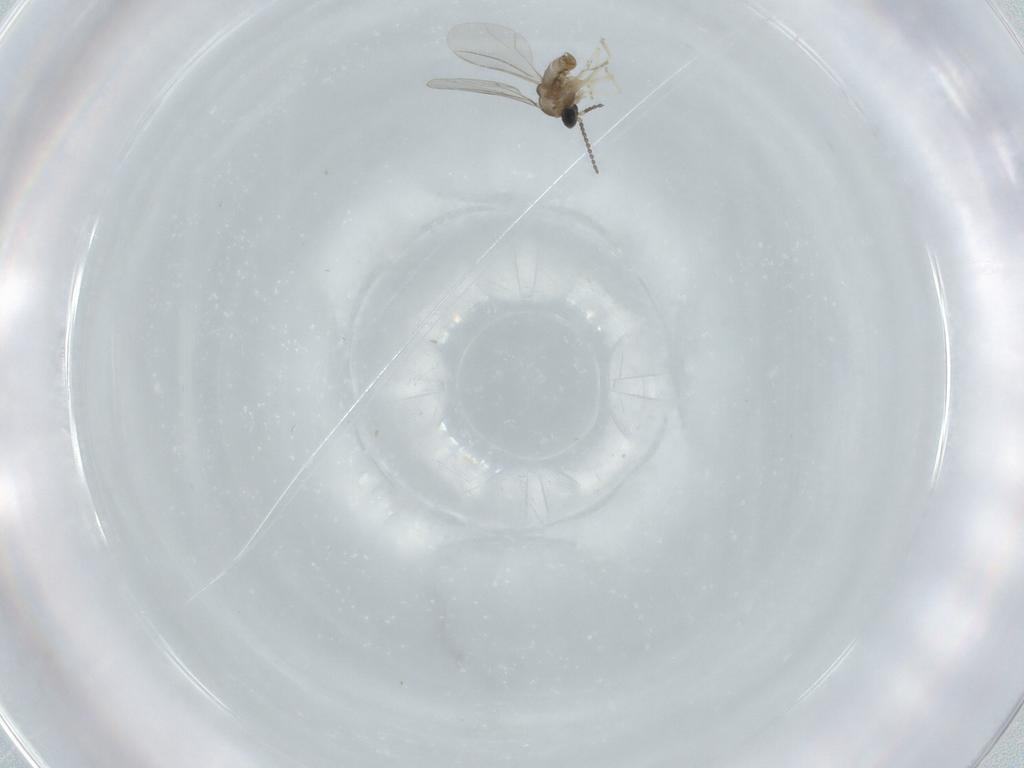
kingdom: Animalia
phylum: Arthropoda
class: Insecta
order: Diptera
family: Cecidomyiidae
